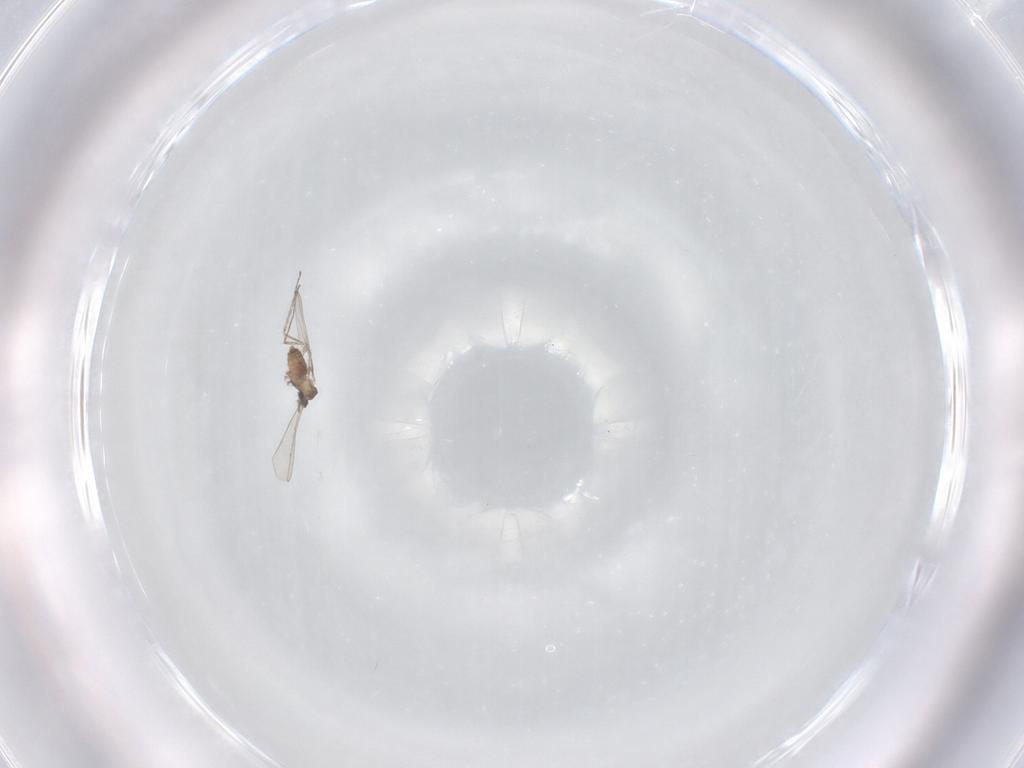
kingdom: Animalia
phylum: Arthropoda
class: Insecta
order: Diptera
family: Cecidomyiidae
